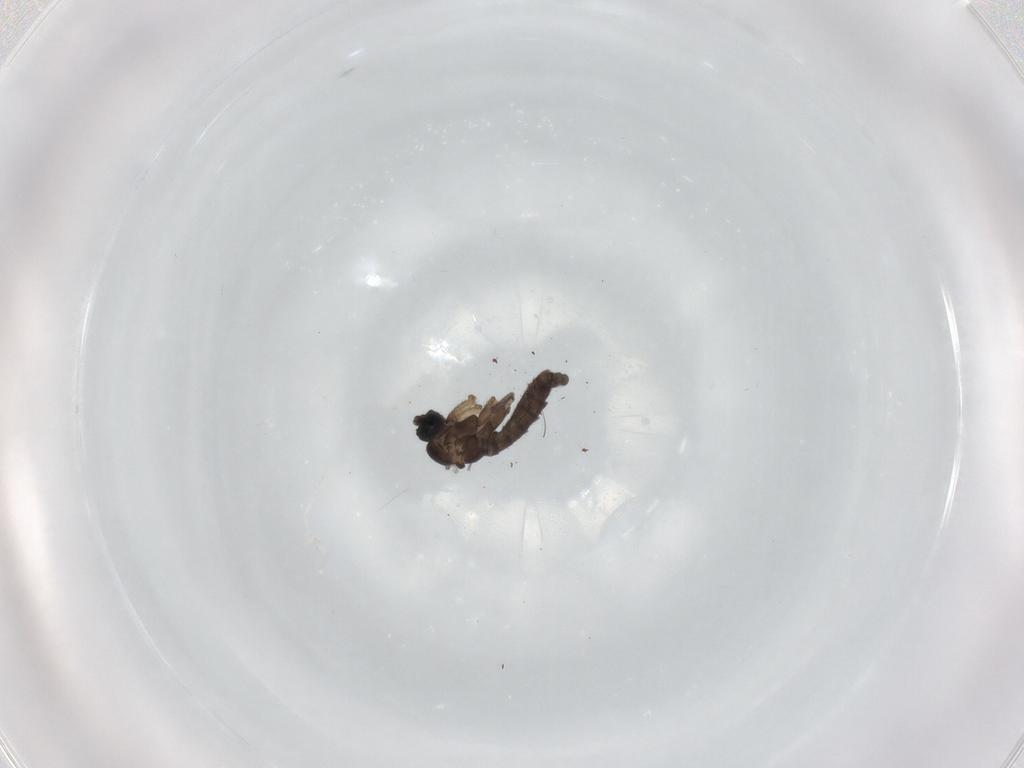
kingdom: Animalia
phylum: Arthropoda
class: Insecta
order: Diptera
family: Sciaridae
